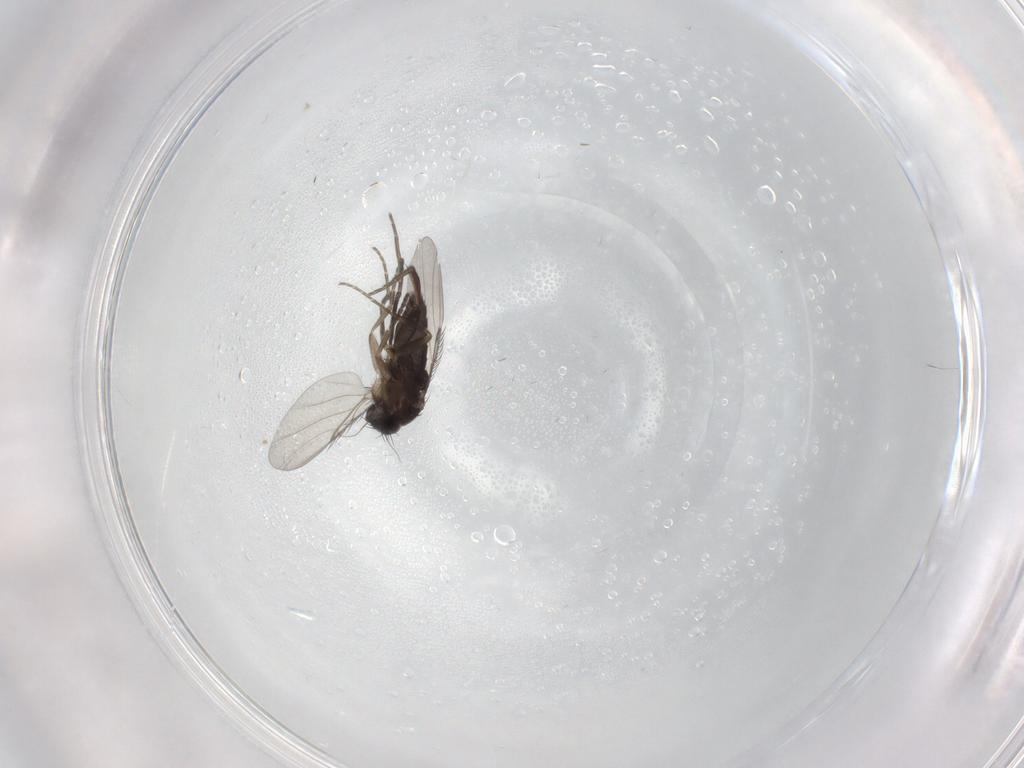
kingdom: Animalia
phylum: Arthropoda
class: Insecta
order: Diptera
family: Phoridae
